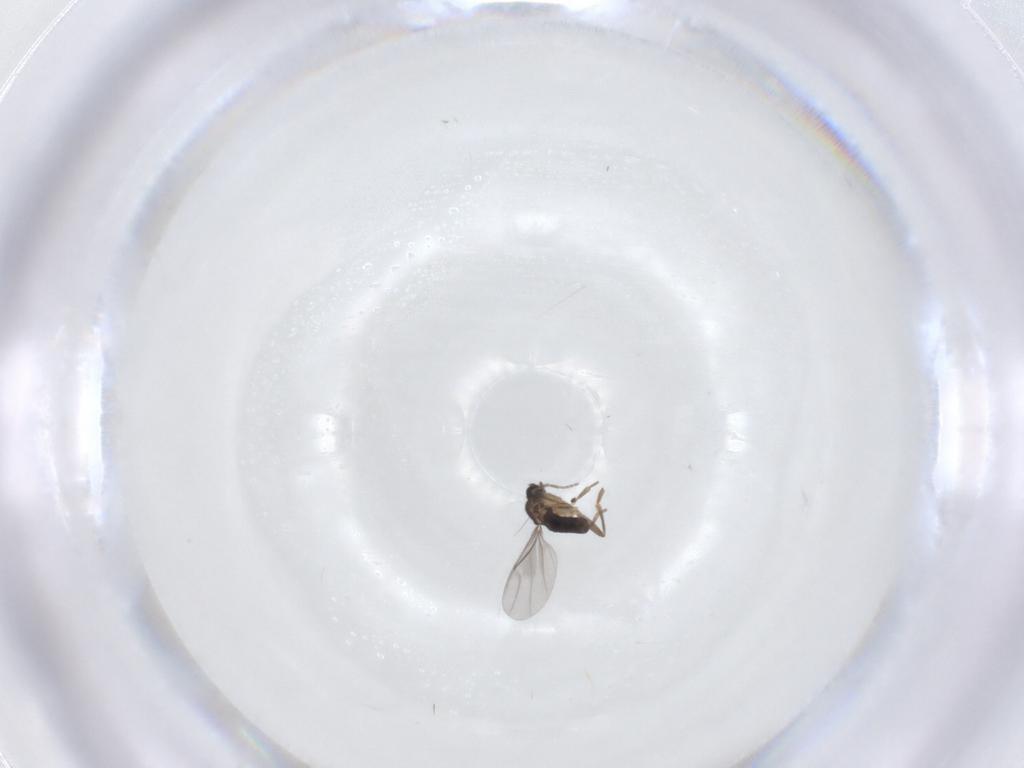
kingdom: Animalia
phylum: Arthropoda
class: Insecta
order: Diptera
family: Phoridae
